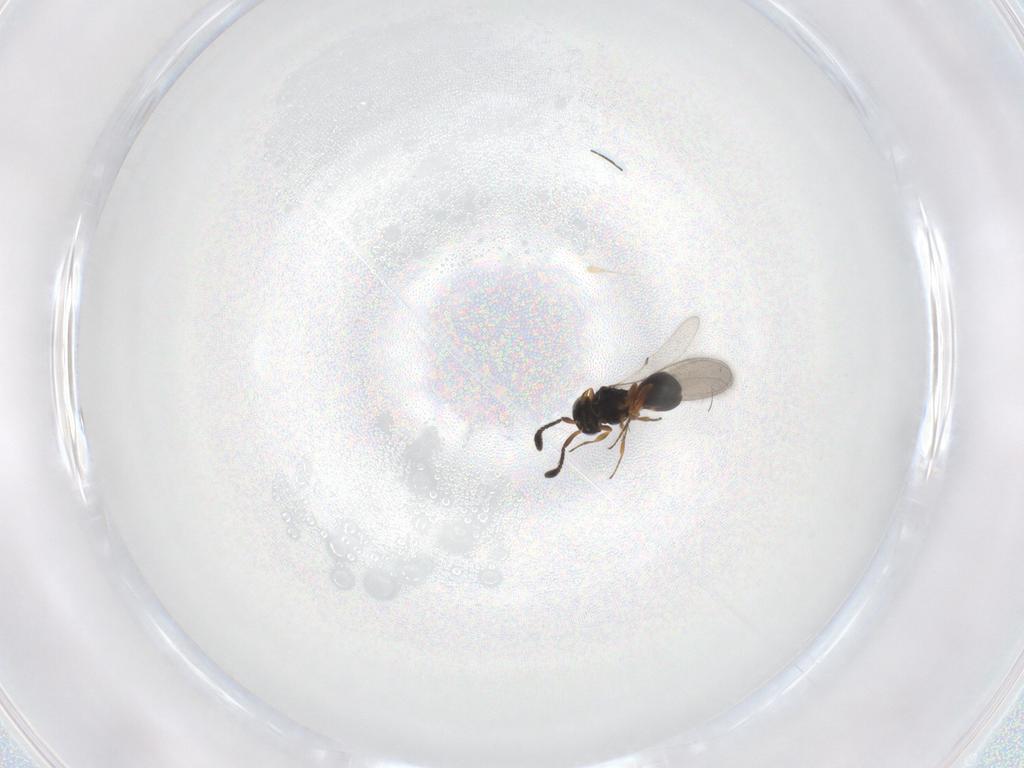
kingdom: Animalia
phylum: Arthropoda
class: Insecta
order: Hymenoptera
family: Scelionidae
